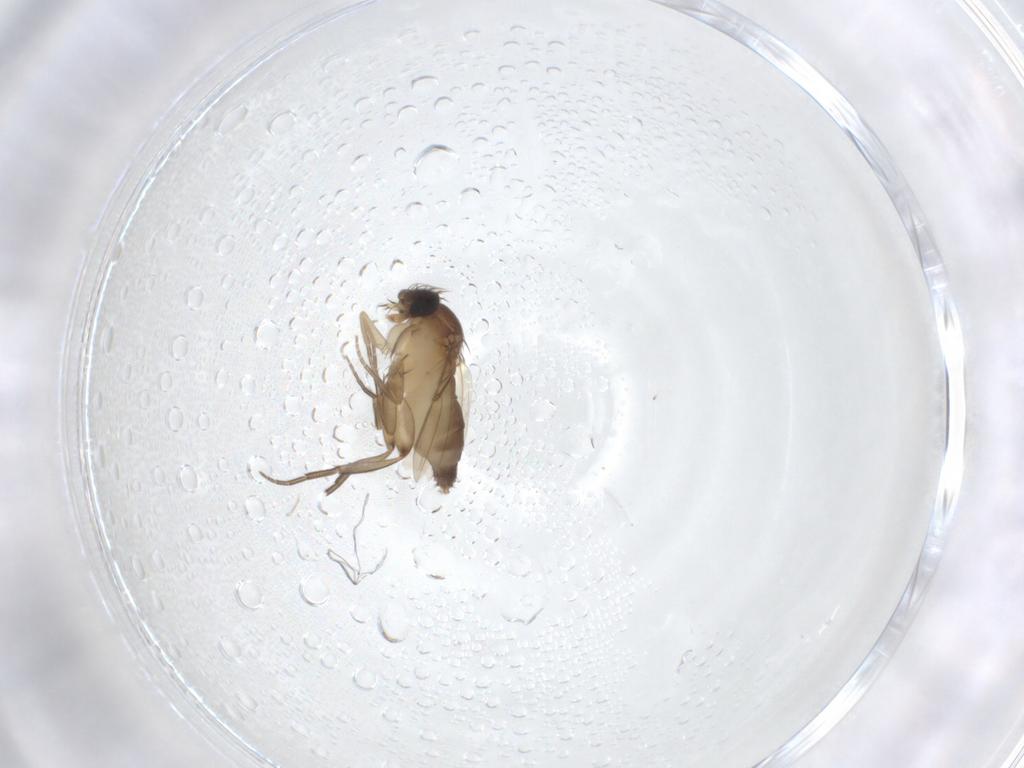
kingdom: Animalia
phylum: Arthropoda
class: Insecta
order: Diptera
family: Phoridae
